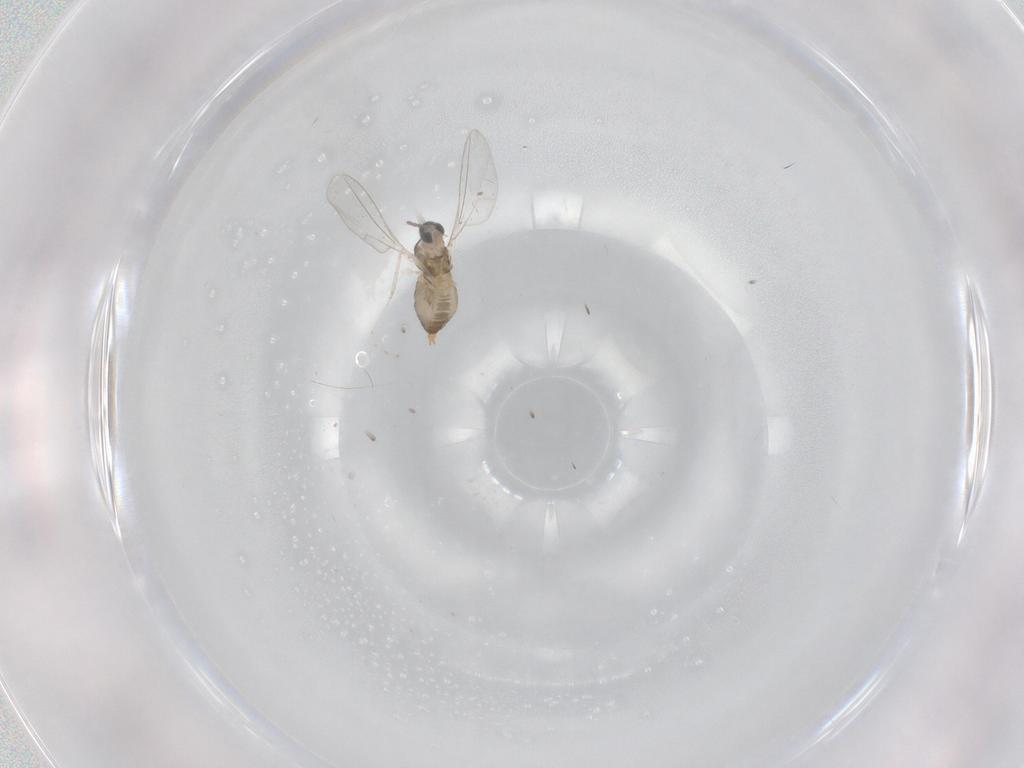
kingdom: Animalia
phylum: Arthropoda
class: Insecta
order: Diptera
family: Cecidomyiidae
